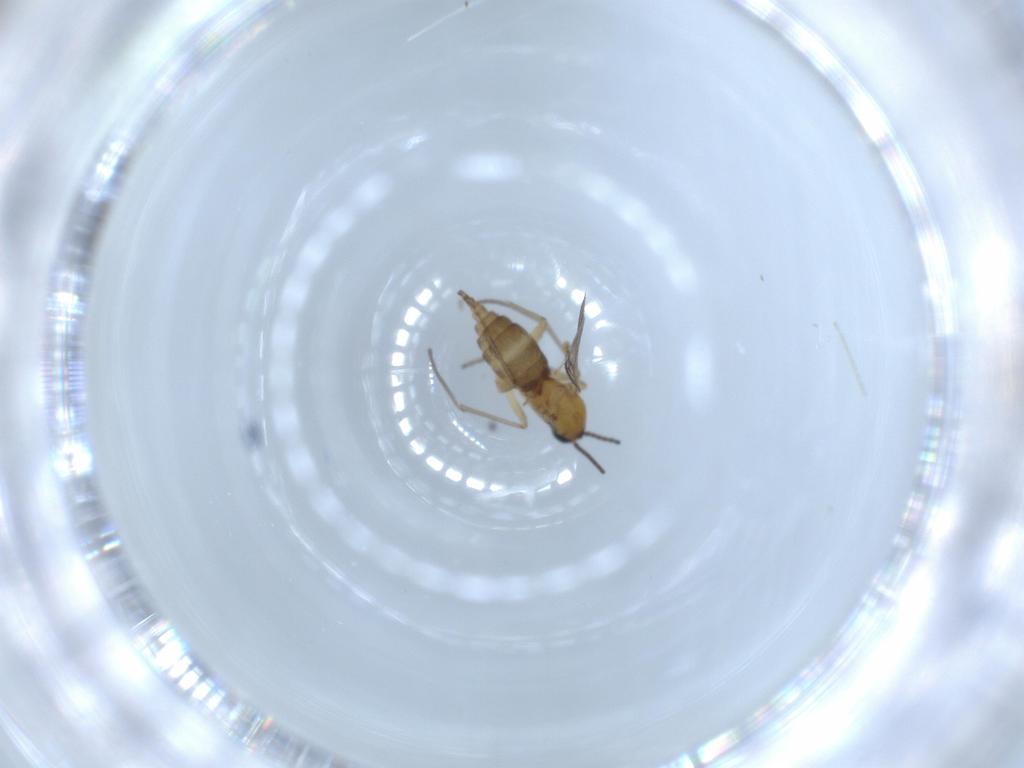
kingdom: Animalia
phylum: Arthropoda
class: Insecta
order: Diptera
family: Sciaridae
